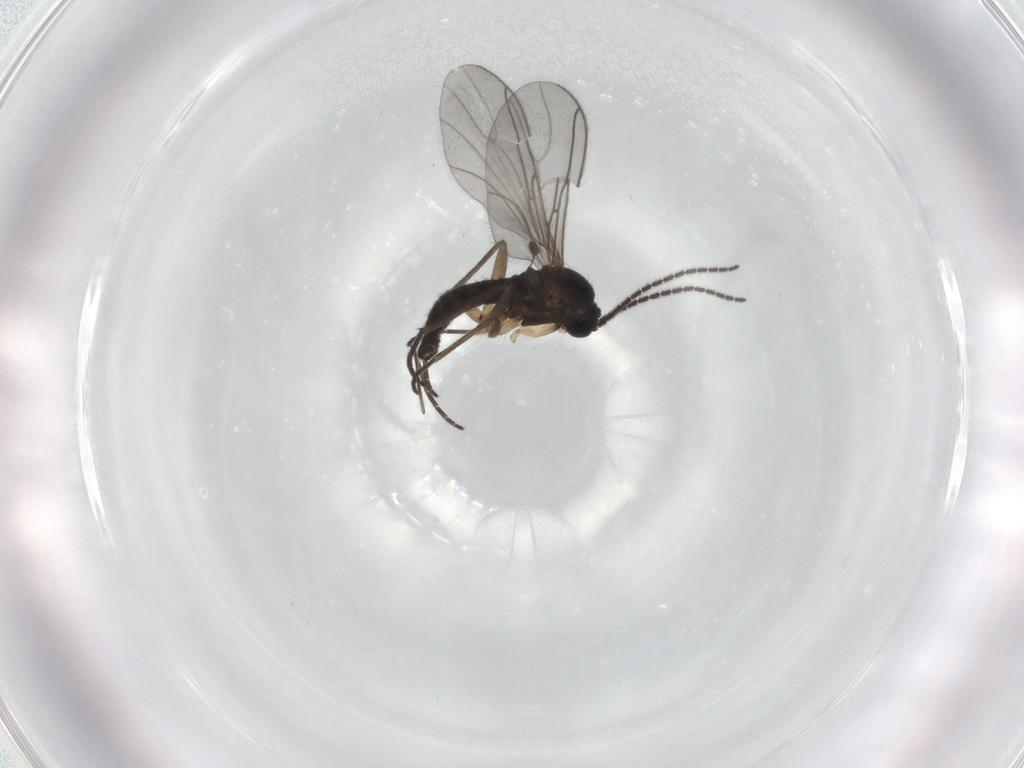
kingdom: Animalia
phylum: Arthropoda
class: Insecta
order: Diptera
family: Sciaridae
